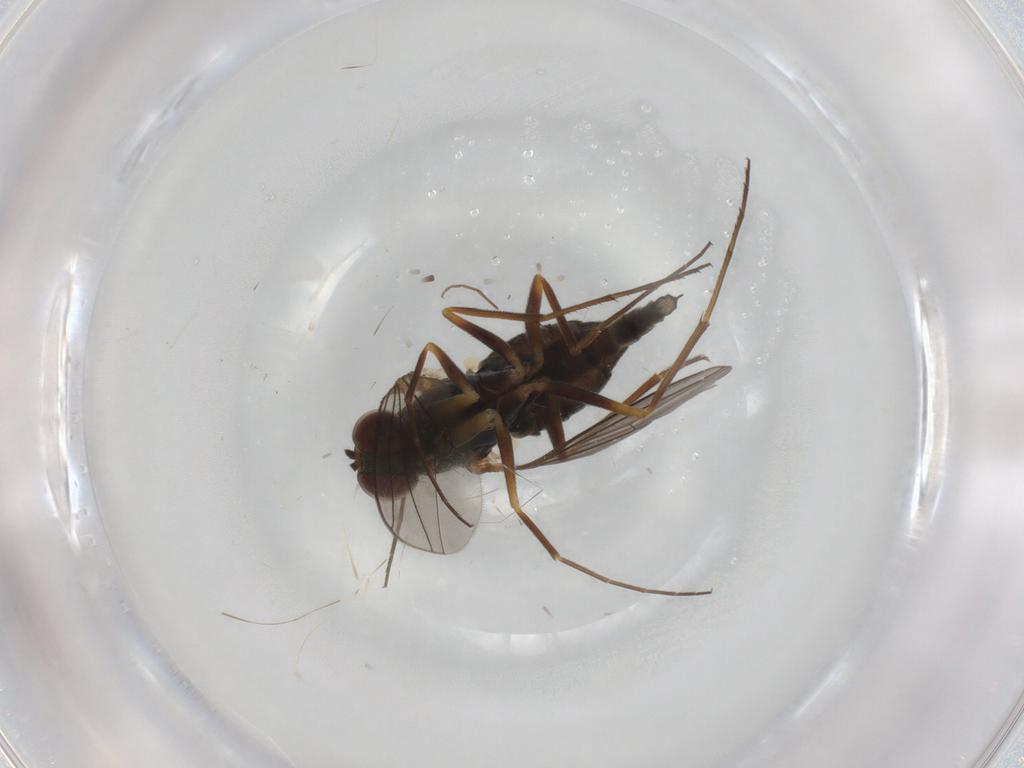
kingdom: Animalia
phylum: Arthropoda
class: Insecta
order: Diptera
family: Dolichopodidae
